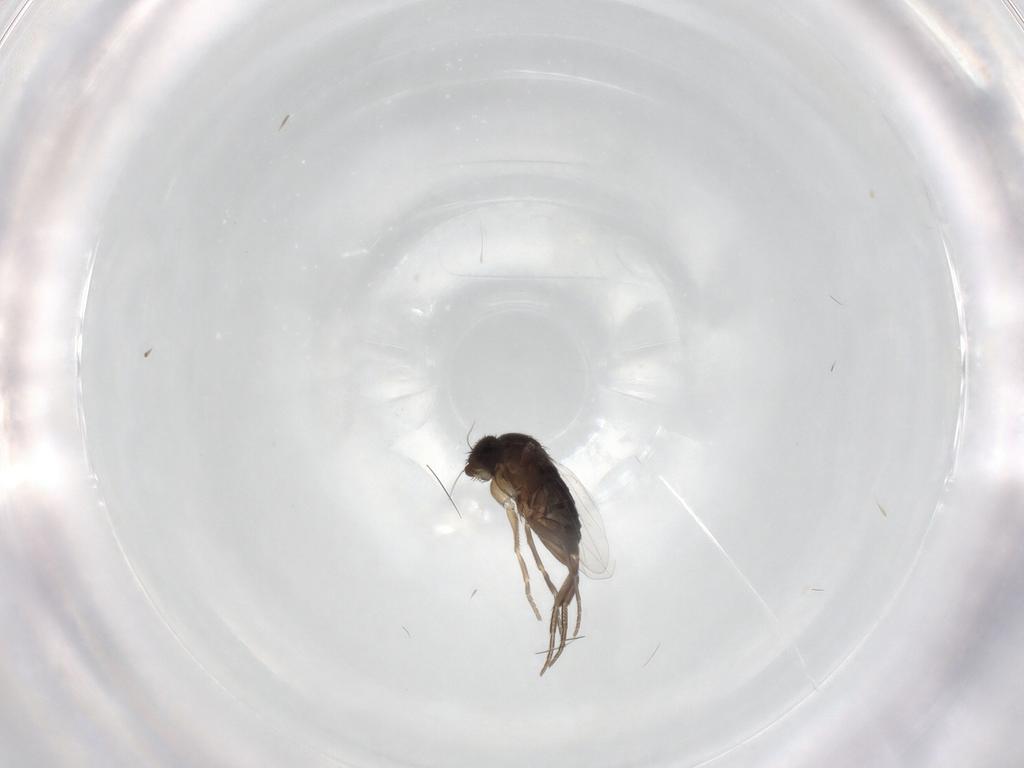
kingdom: Animalia
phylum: Arthropoda
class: Insecta
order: Diptera
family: Phoridae
